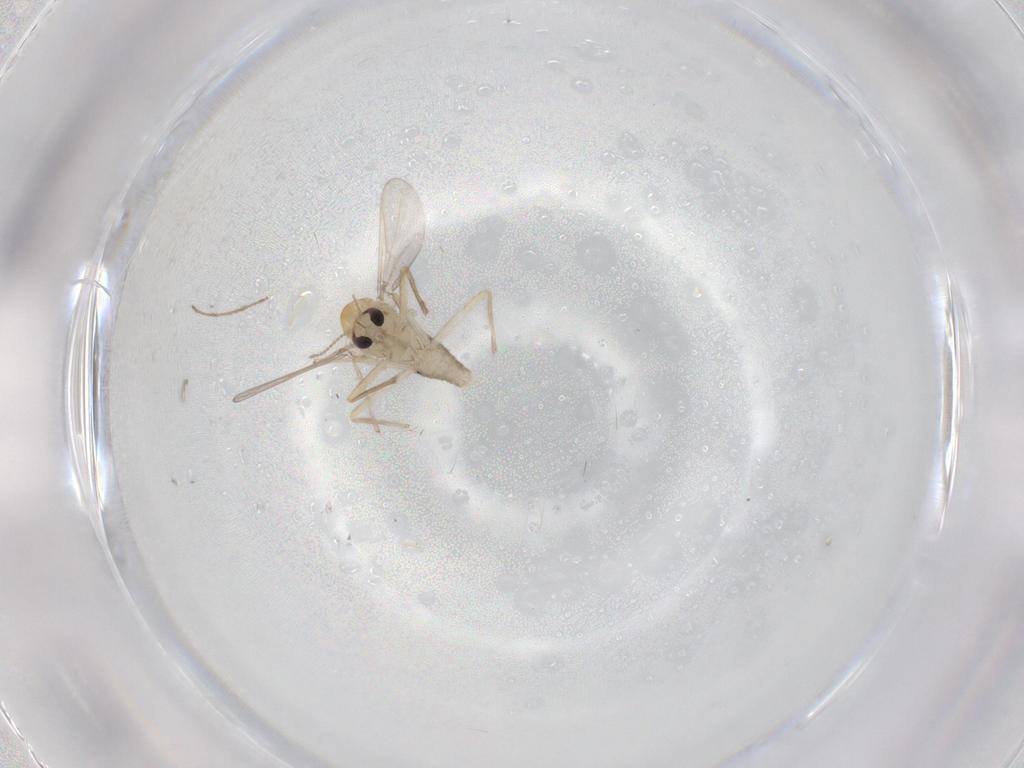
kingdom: Animalia
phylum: Arthropoda
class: Insecta
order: Diptera
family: Chironomidae
